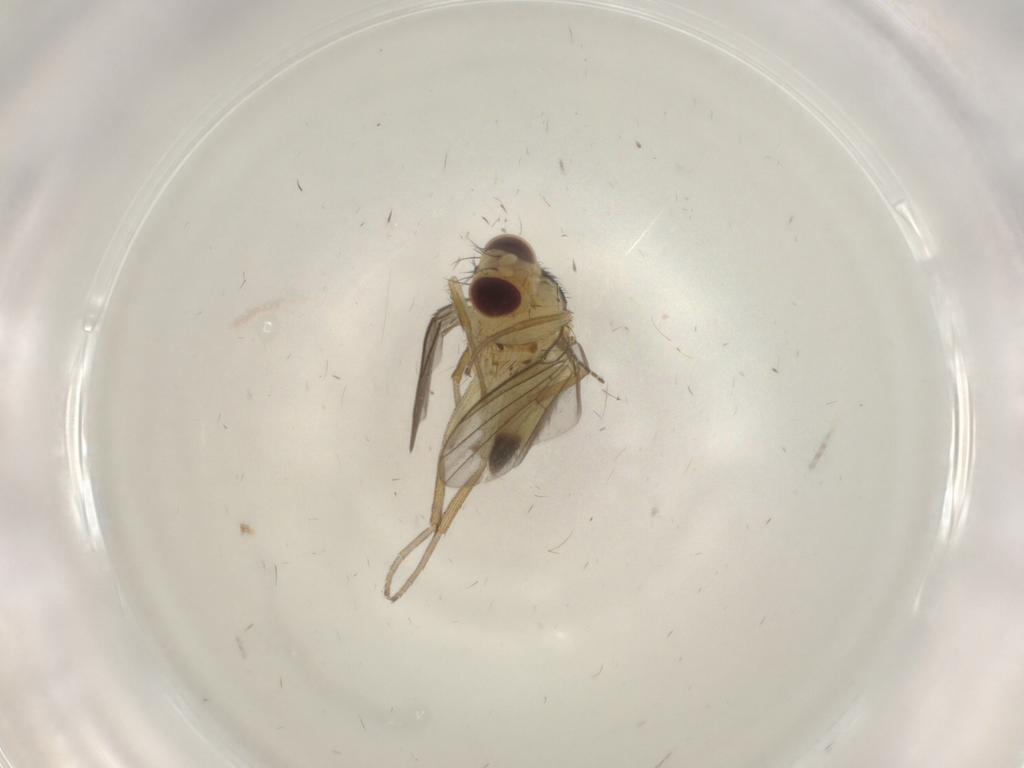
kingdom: Animalia
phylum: Arthropoda
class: Insecta
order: Diptera
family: Agromyzidae
